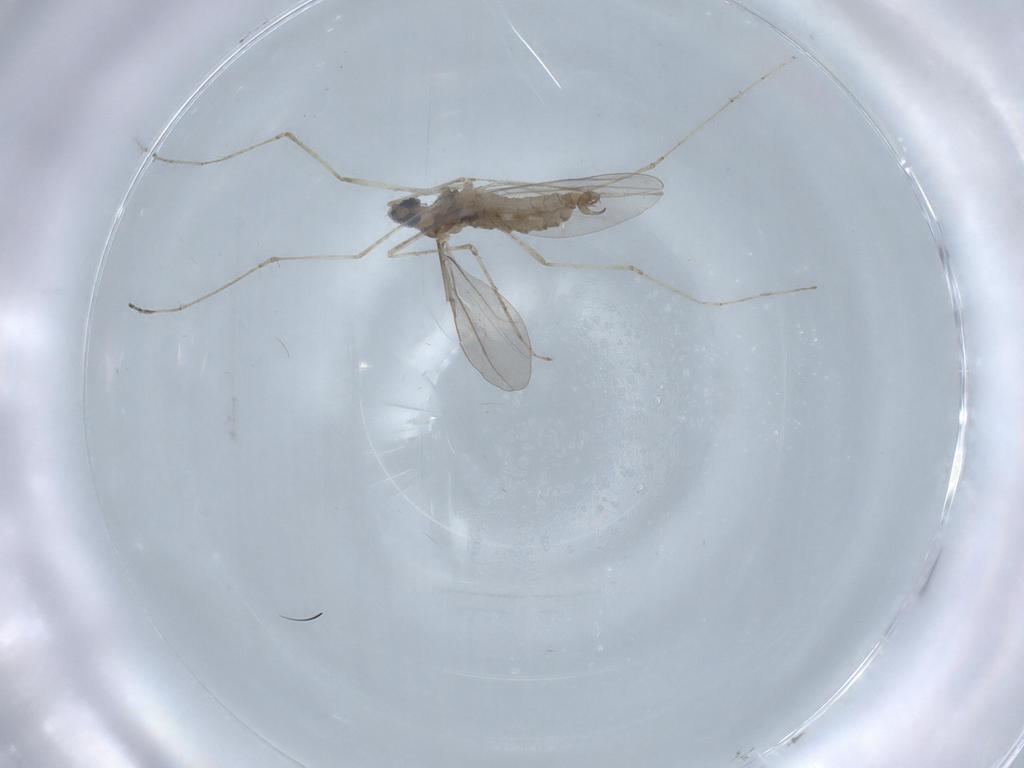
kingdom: Animalia
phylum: Arthropoda
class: Insecta
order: Diptera
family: Cecidomyiidae
